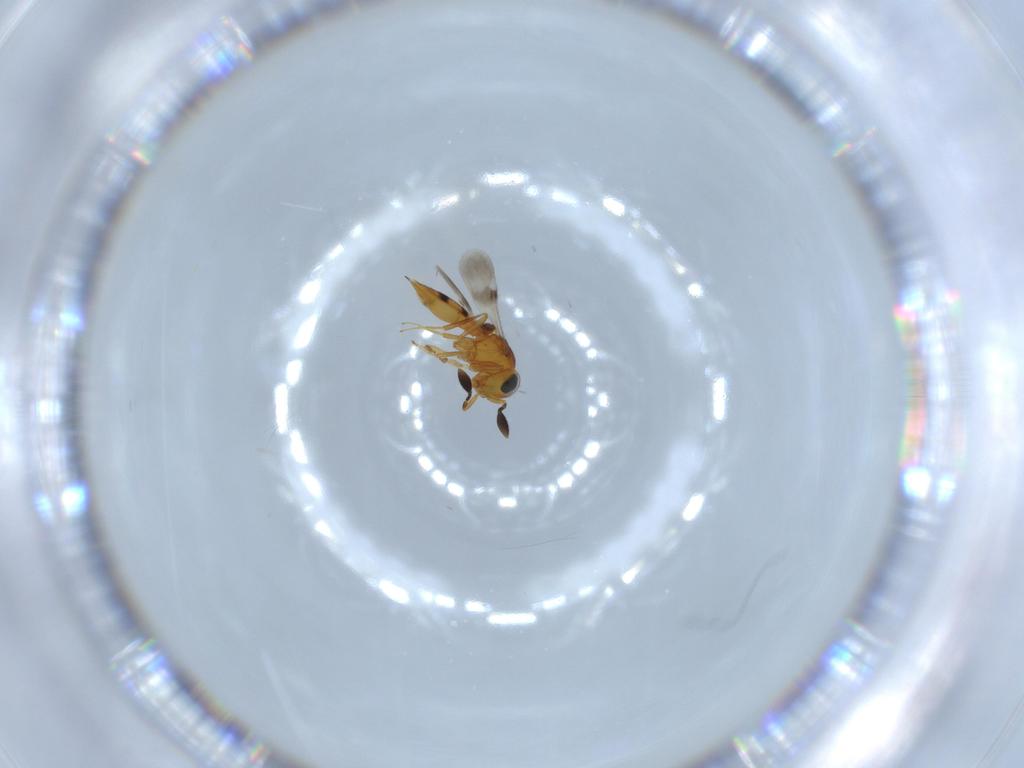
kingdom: Animalia
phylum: Arthropoda
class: Insecta
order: Hymenoptera
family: Scelionidae
